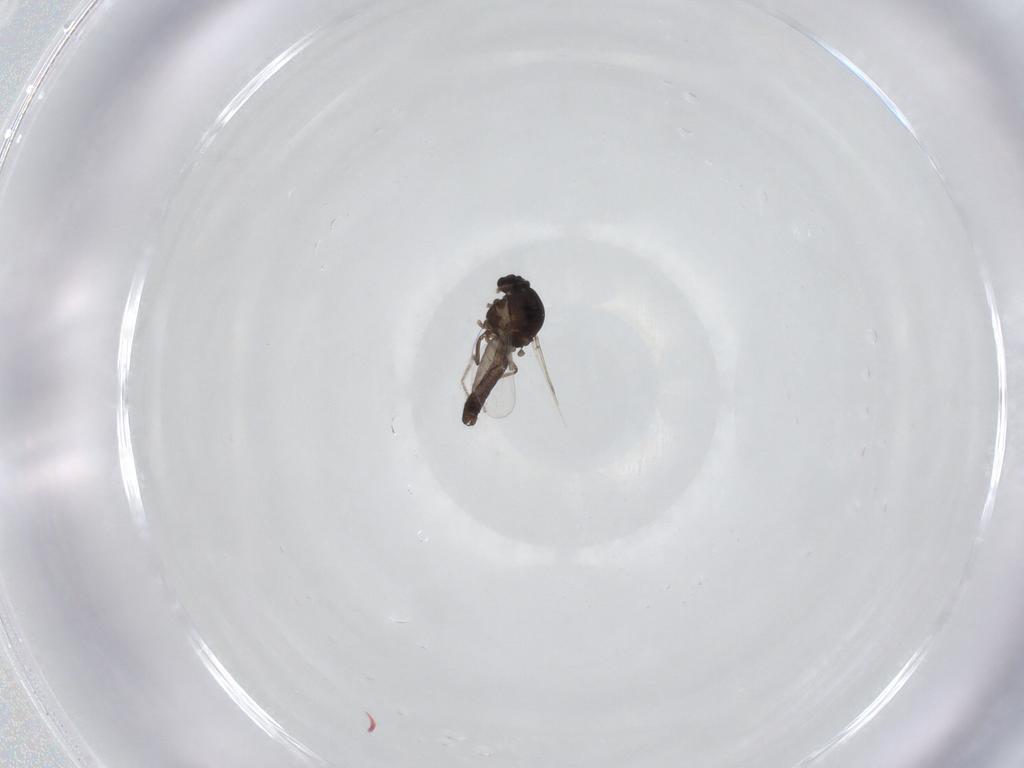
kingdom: Animalia
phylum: Arthropoda
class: Insecta
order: Diptera
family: Ceratopogonidae
